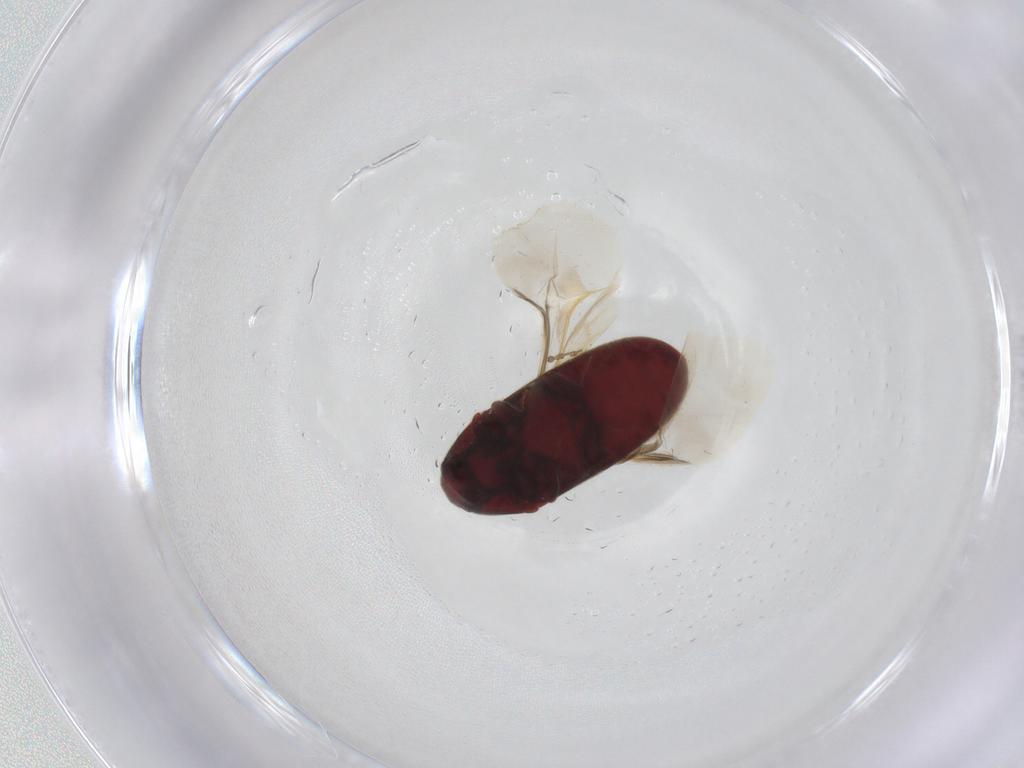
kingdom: Animalia
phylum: Arthropoda
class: Insecta
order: Coleoptera
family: Throscidae
